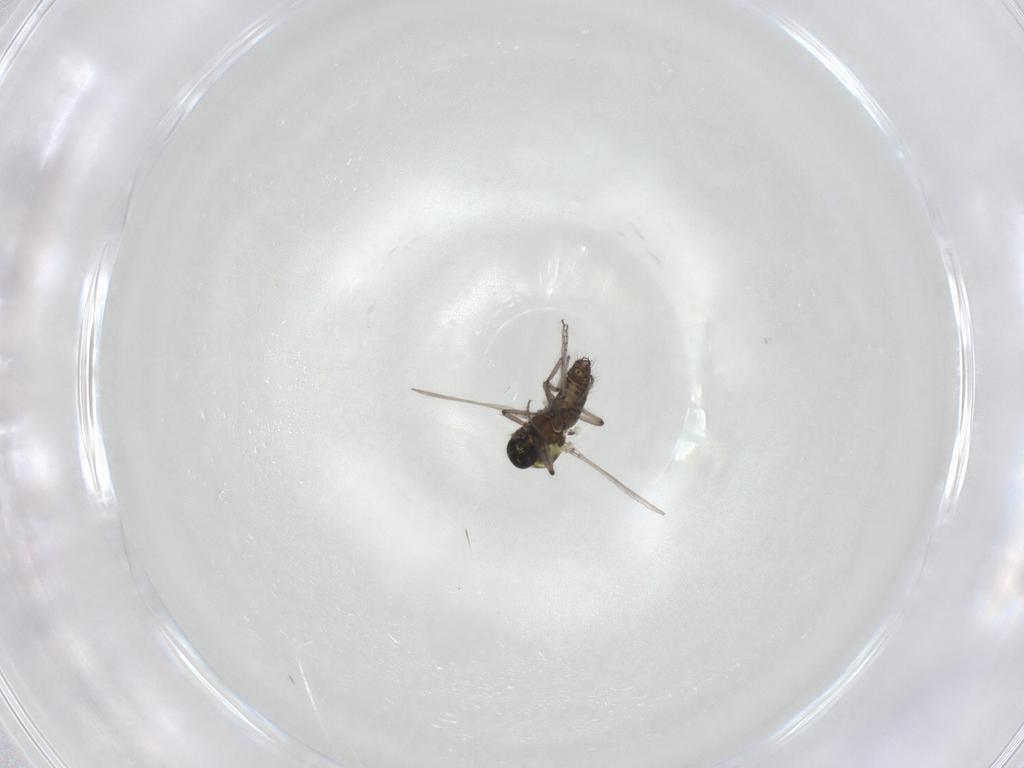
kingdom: Animalia
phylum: Arthropoda
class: Insecta
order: Diptera
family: Ceratopogonidae
